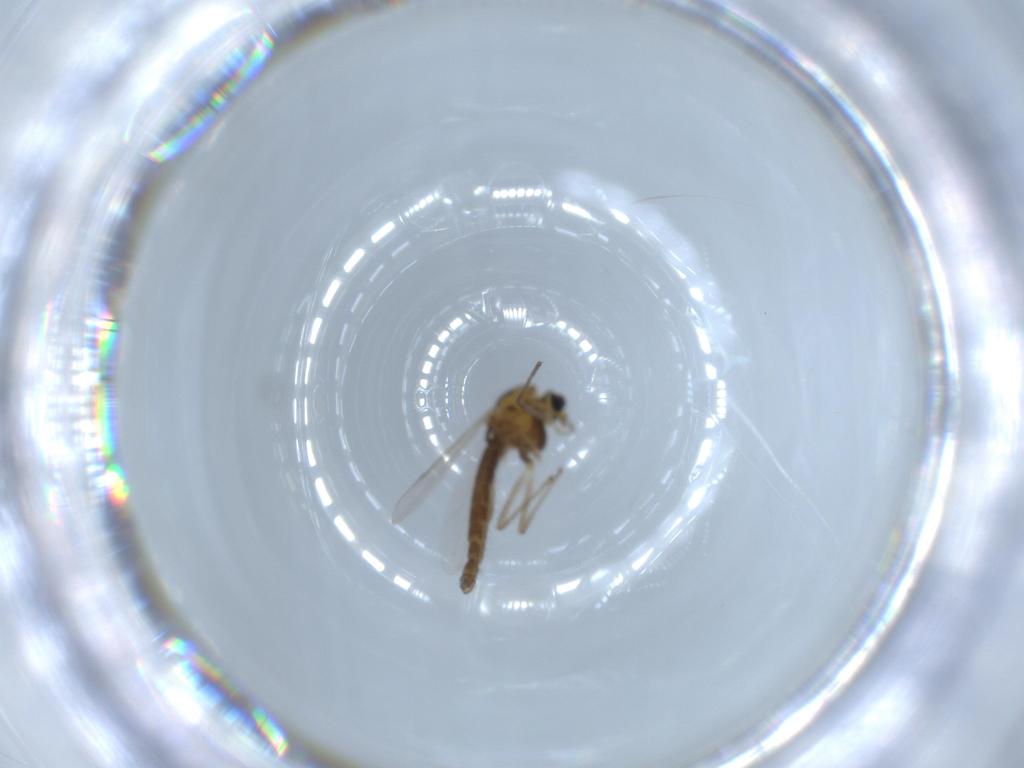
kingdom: Animalia
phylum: Arthropoda
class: Insecta
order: Diptera
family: Chironomidae
